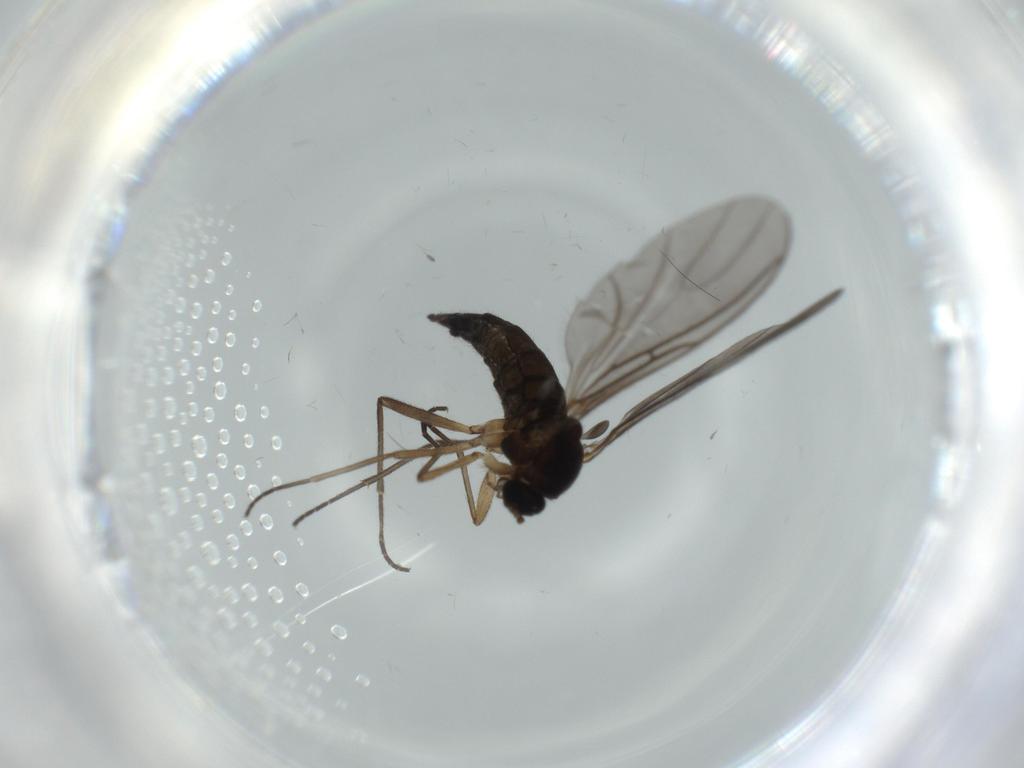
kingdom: Animalia
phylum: Arthropoda
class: Insecta
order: Diptera
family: Sciaridae
